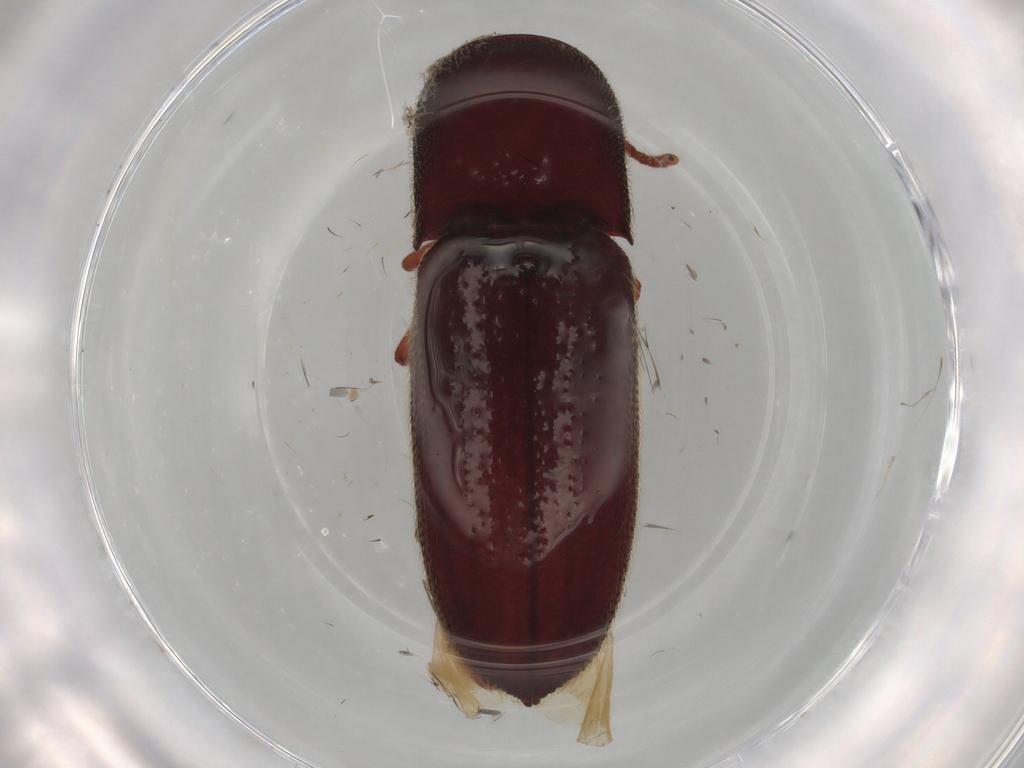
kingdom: Animalia
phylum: Arthropoda
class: Insecta
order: Coleoptera
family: Eucnemidae
